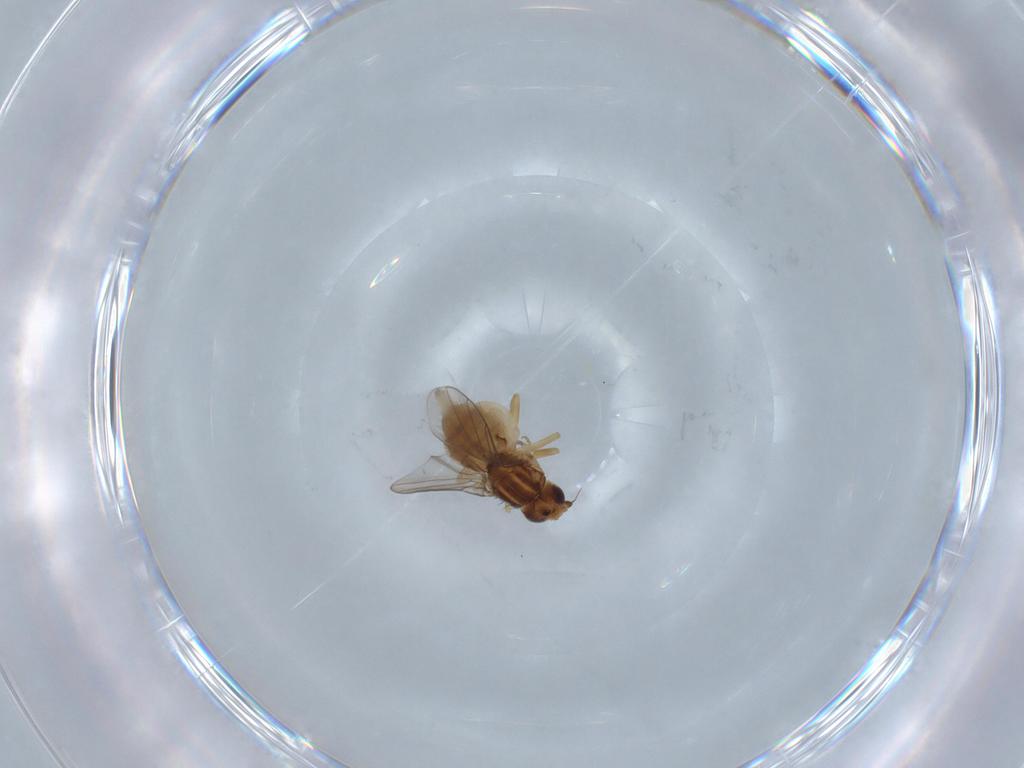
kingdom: Animalia
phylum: Arthropoda
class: Insecta
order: Diptera
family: Chloropidae
